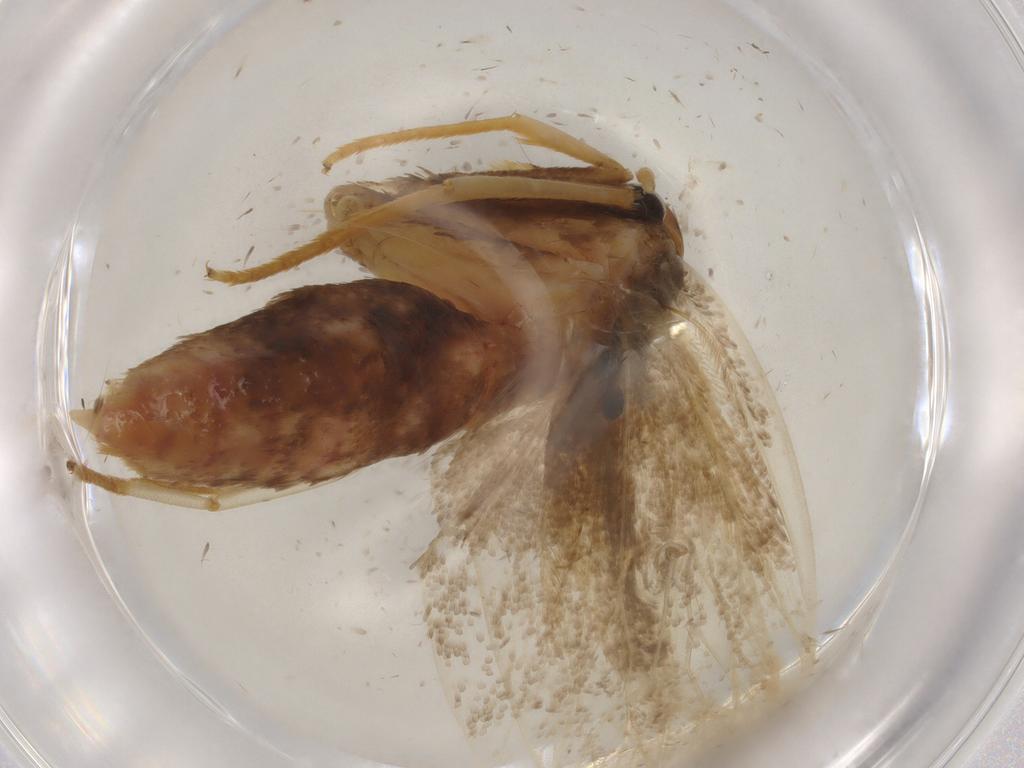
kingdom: Animalia
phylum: Arthropoda
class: Insecta
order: Lepidoptera
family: Lecithoceridae
